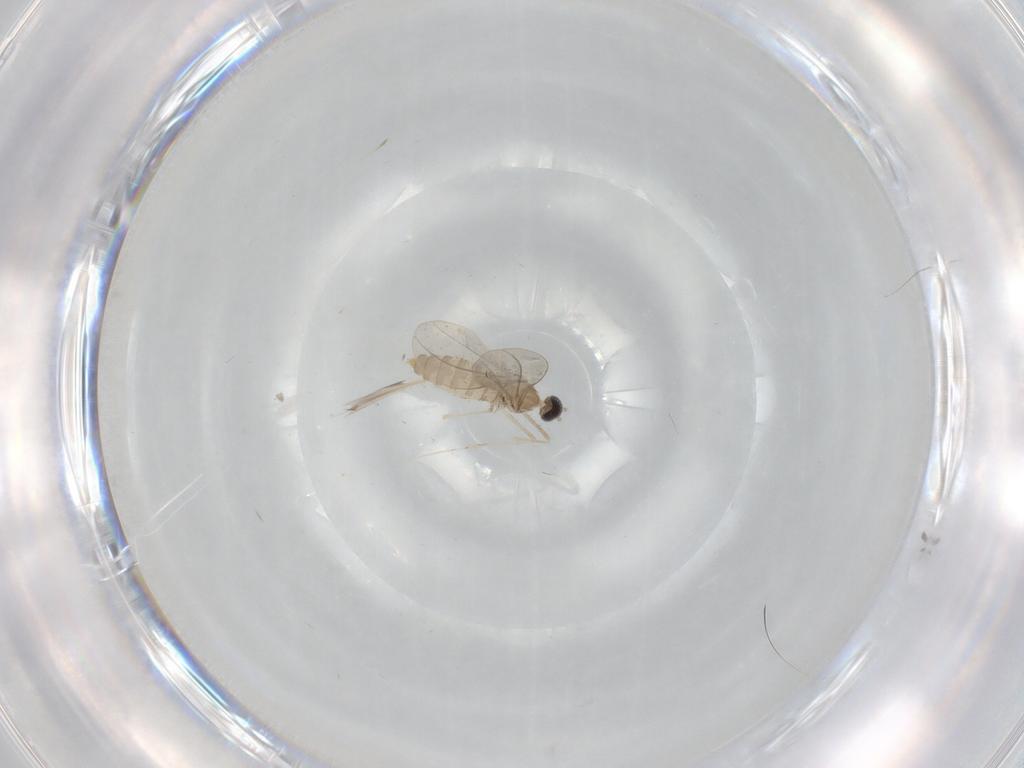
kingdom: Animalia
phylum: Arthropoda
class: Insecta
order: Diptera
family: Cecidomyiidae
